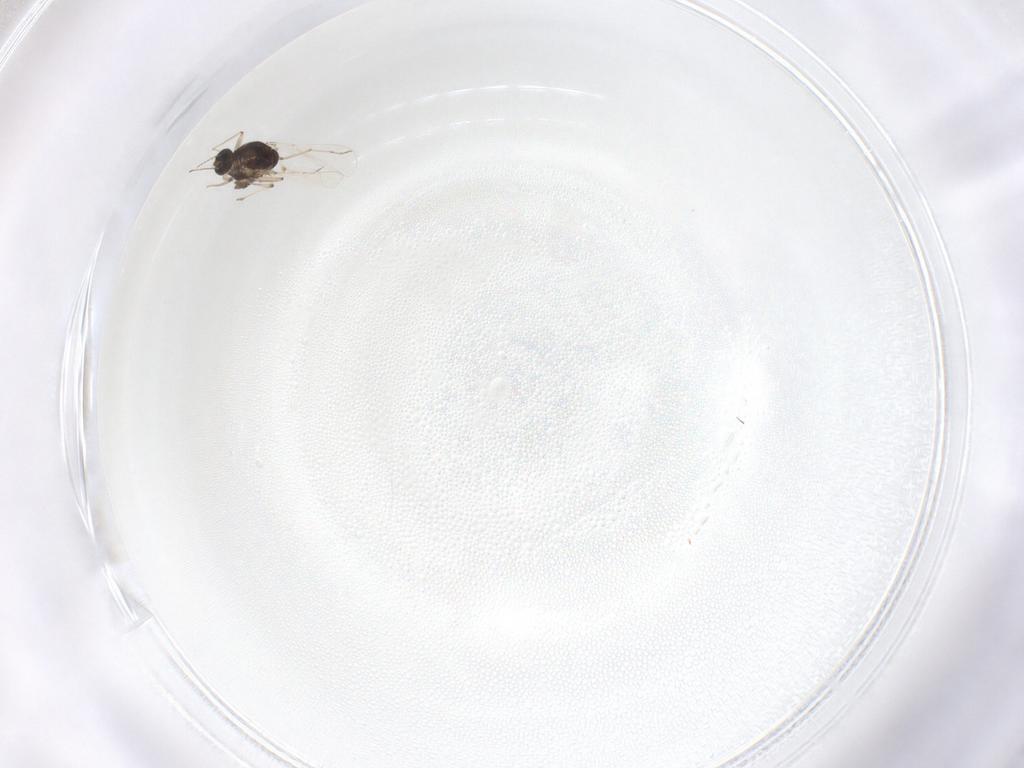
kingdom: Animalia
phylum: Arthropoda
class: Insecta
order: Diptera
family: Chironomidae
